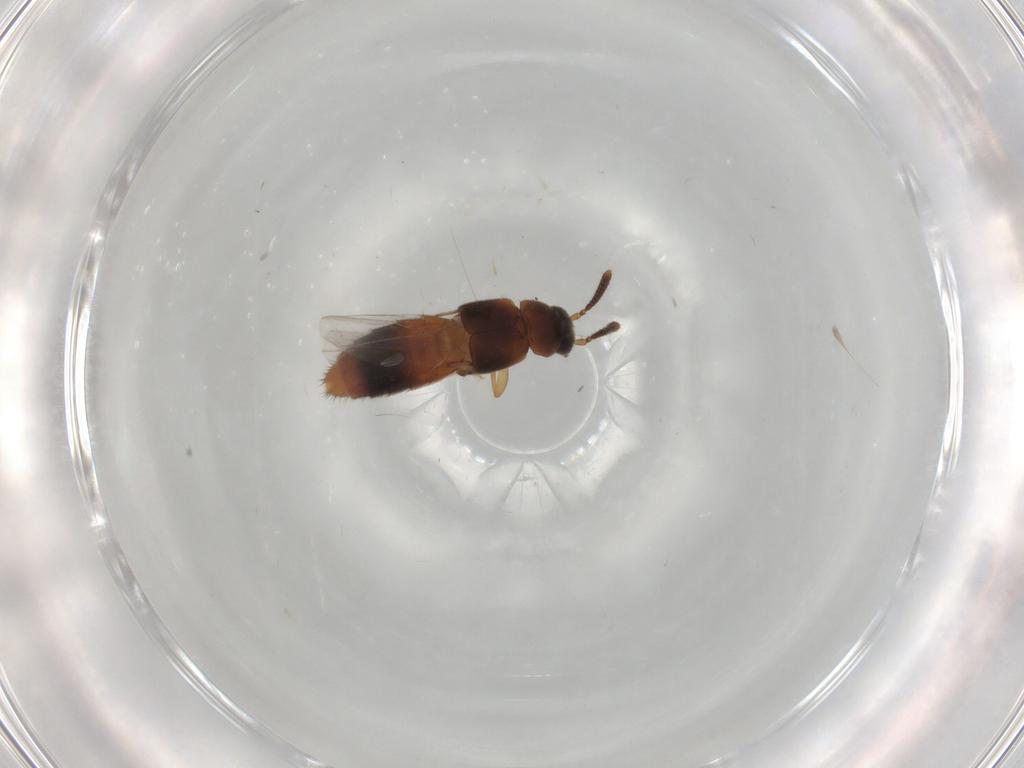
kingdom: Animalia
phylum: Arthropoda
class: Insecta
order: Coleoptera
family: Staphylinidae
